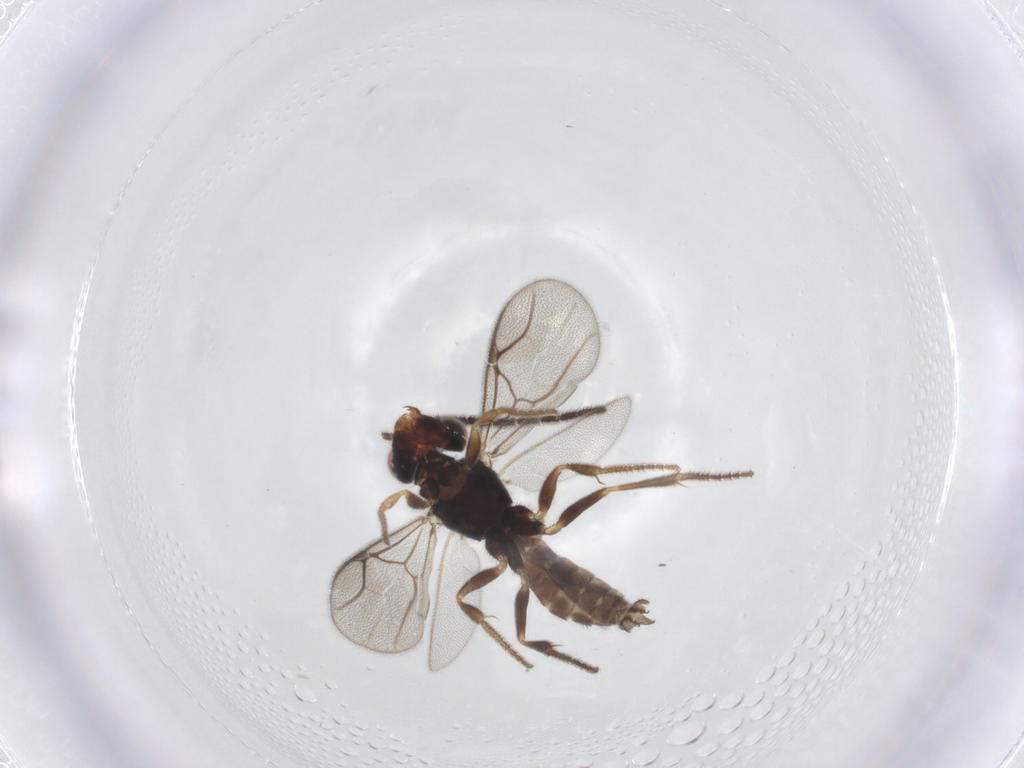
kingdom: Animalia
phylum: Arthropoda
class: Insecta
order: Hymenoptera
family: Dryinidae
